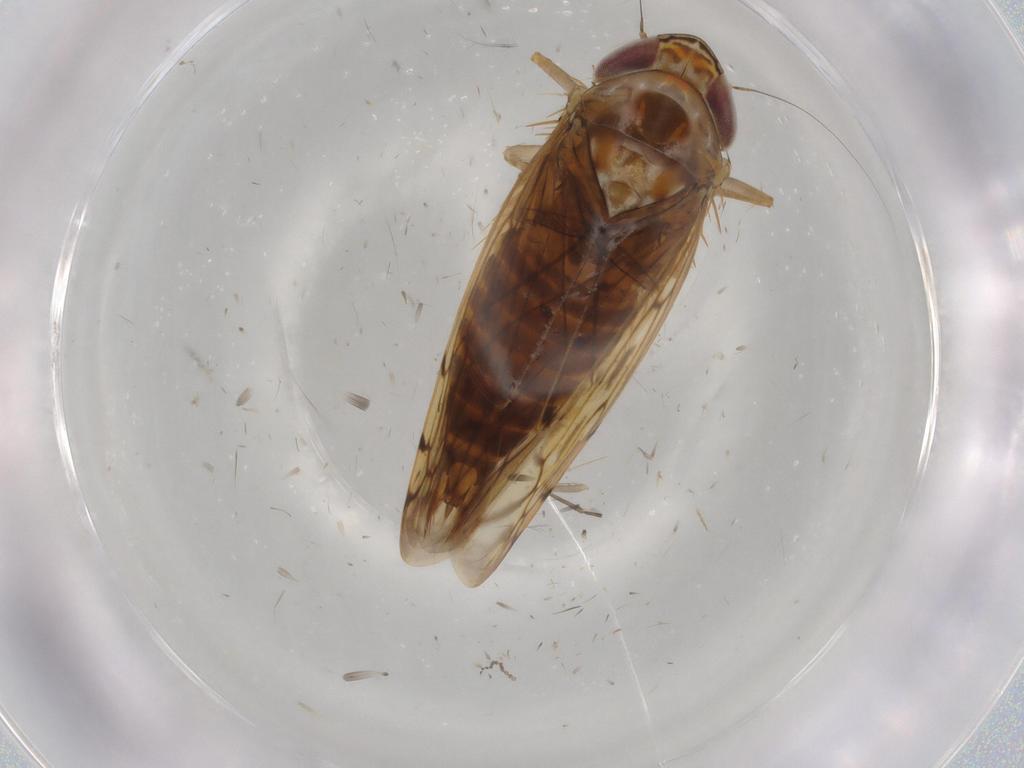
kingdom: Animalia
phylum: Arthropoda
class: Insecta
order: Hemiptera
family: Cicadellidae
